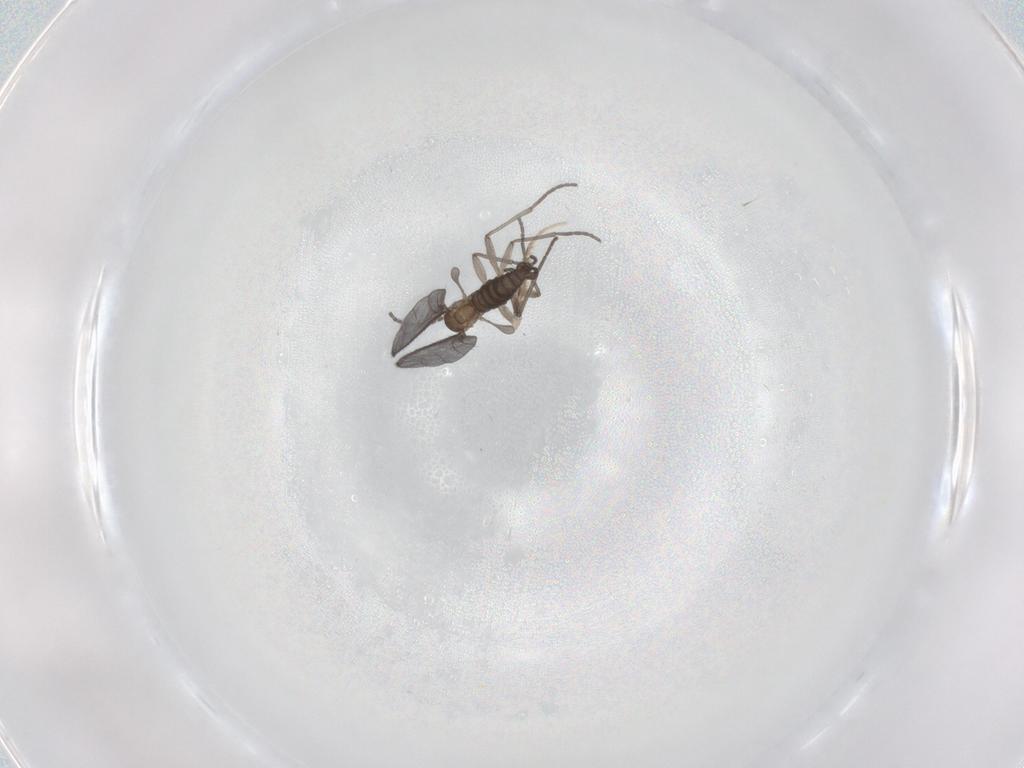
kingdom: Animalia
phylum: Arthropoda
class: Insecta
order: Diptera
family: Sciaridae
